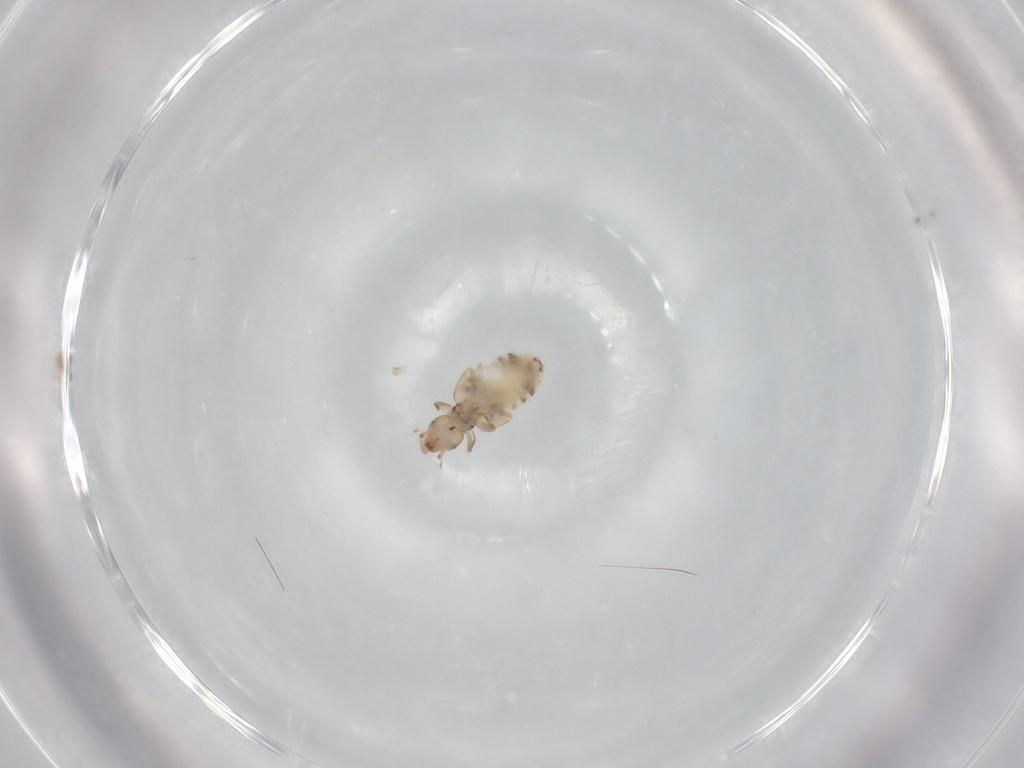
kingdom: Animalia
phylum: Arthropoda
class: Insecta
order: Psocodea
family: Liposcelididae
